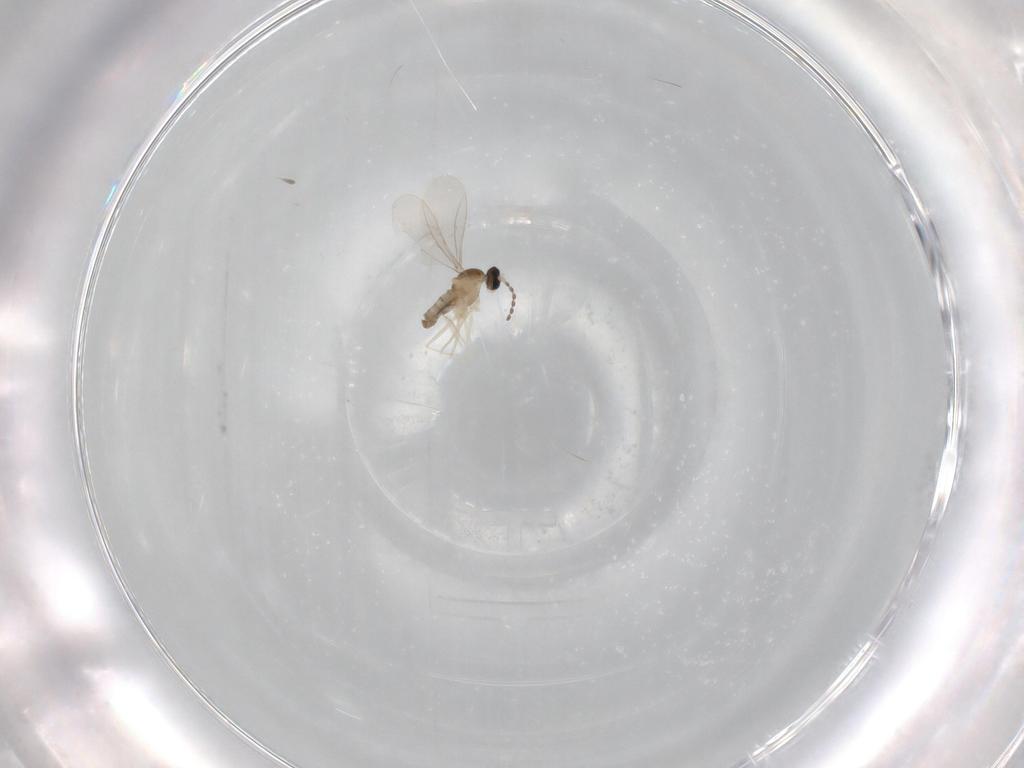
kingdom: Animalia
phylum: Arthropoda
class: Insecta
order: Diptera
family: Cecidomyiidae
